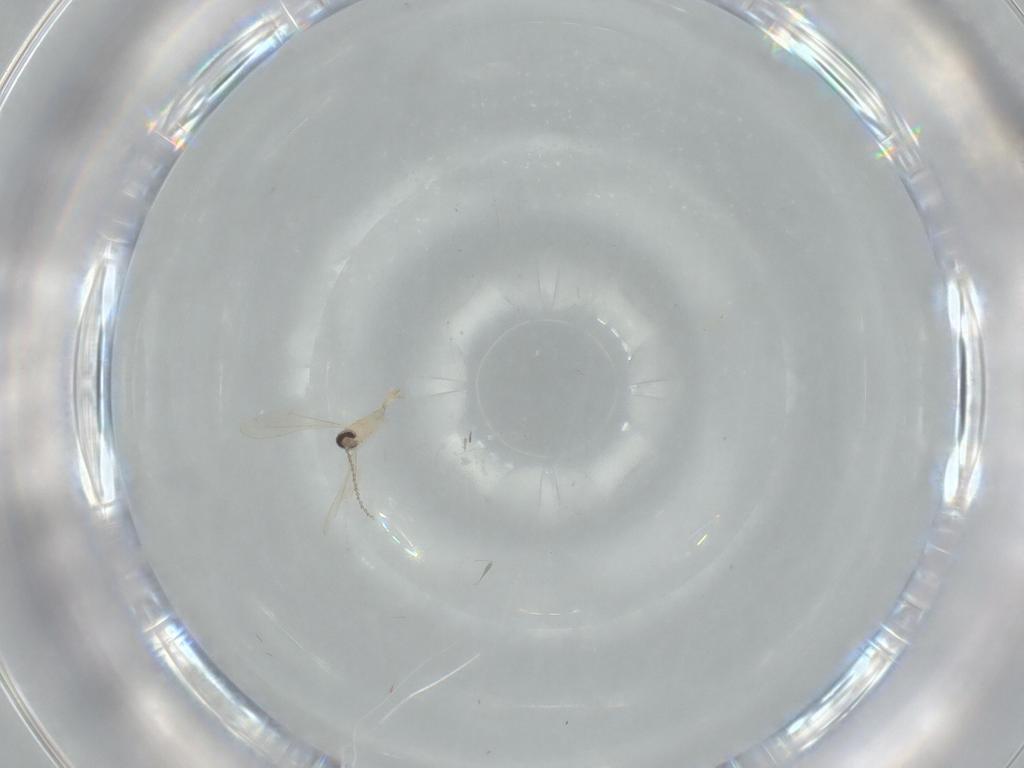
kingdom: Animalia
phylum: Arthropoda
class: Insecta
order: Diptera
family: Cecidomyiidae
